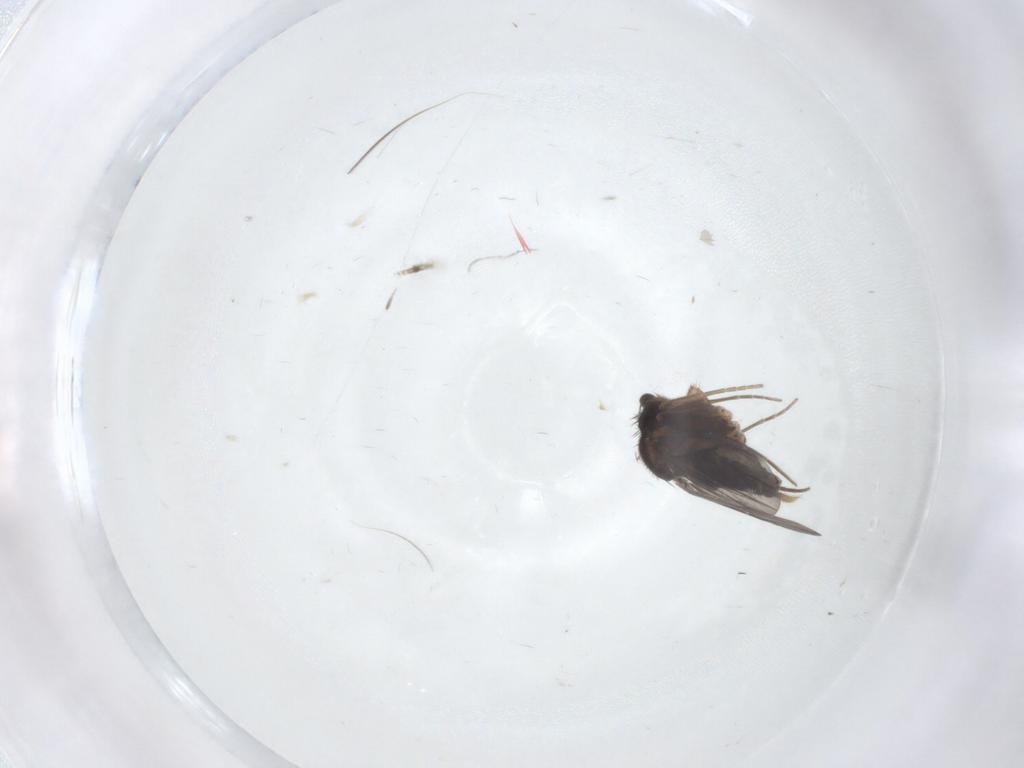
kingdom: Animalia
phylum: Arthropoda
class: Insecta
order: Diptera
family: Phoridae
